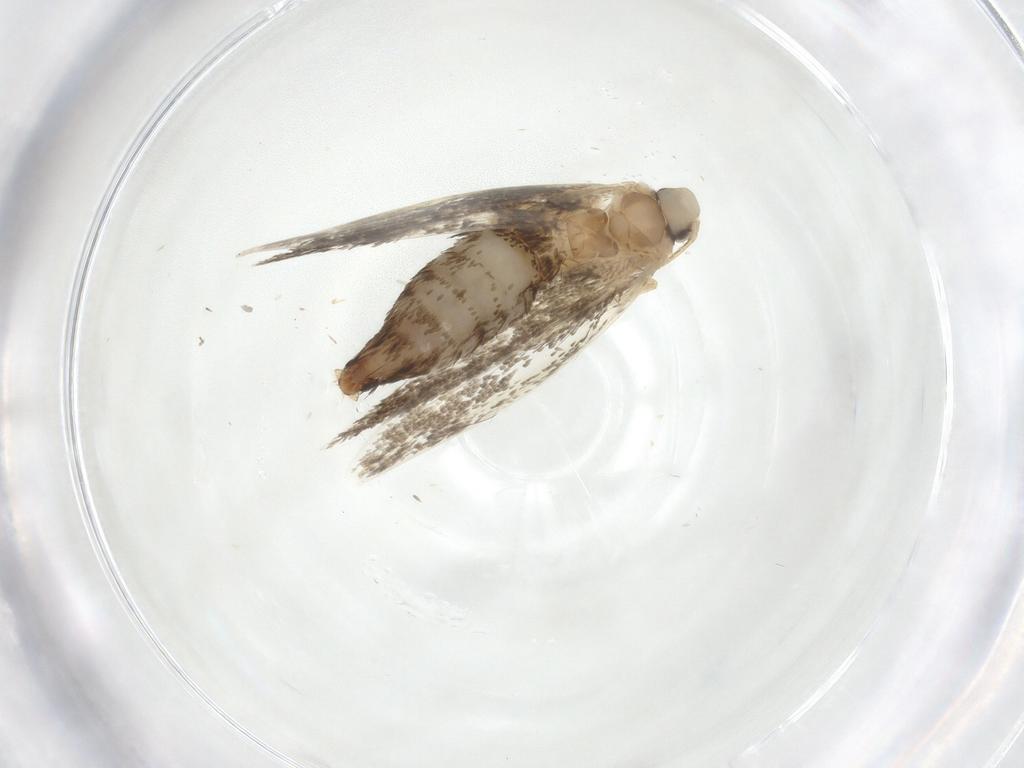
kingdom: Animalia
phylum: Arthropoda
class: Insecta
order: Lepidoptera
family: Tischeriidae
